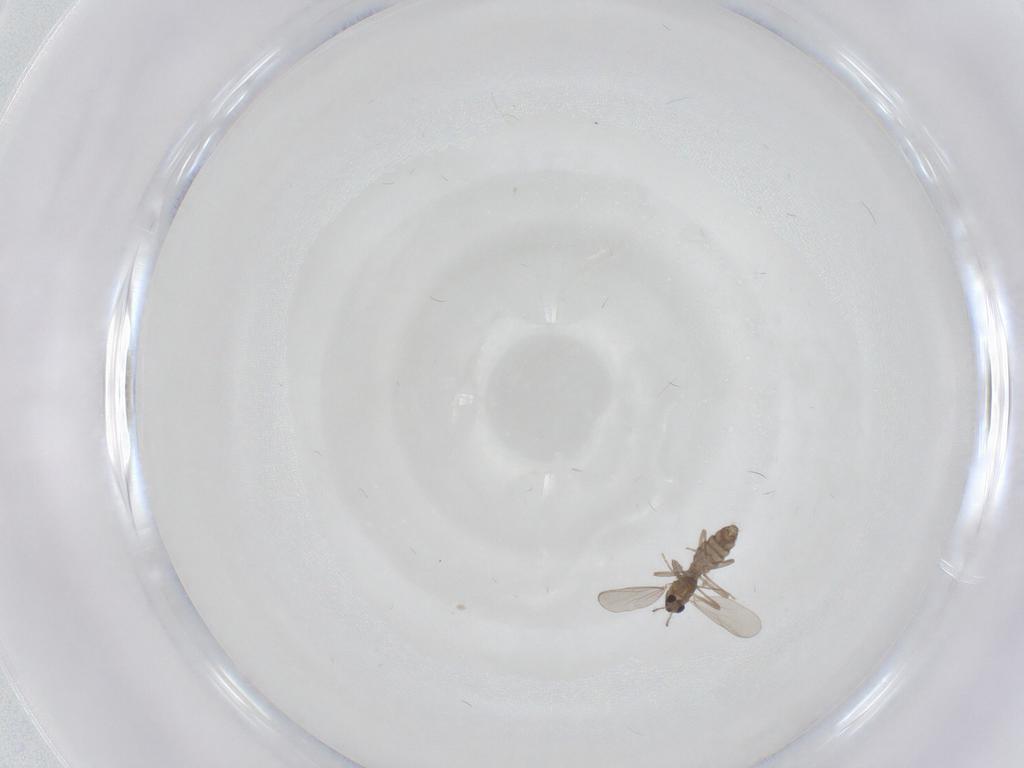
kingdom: Animalia
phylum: Arthropoda
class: Insecta
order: Diptera
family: Chironomidae
